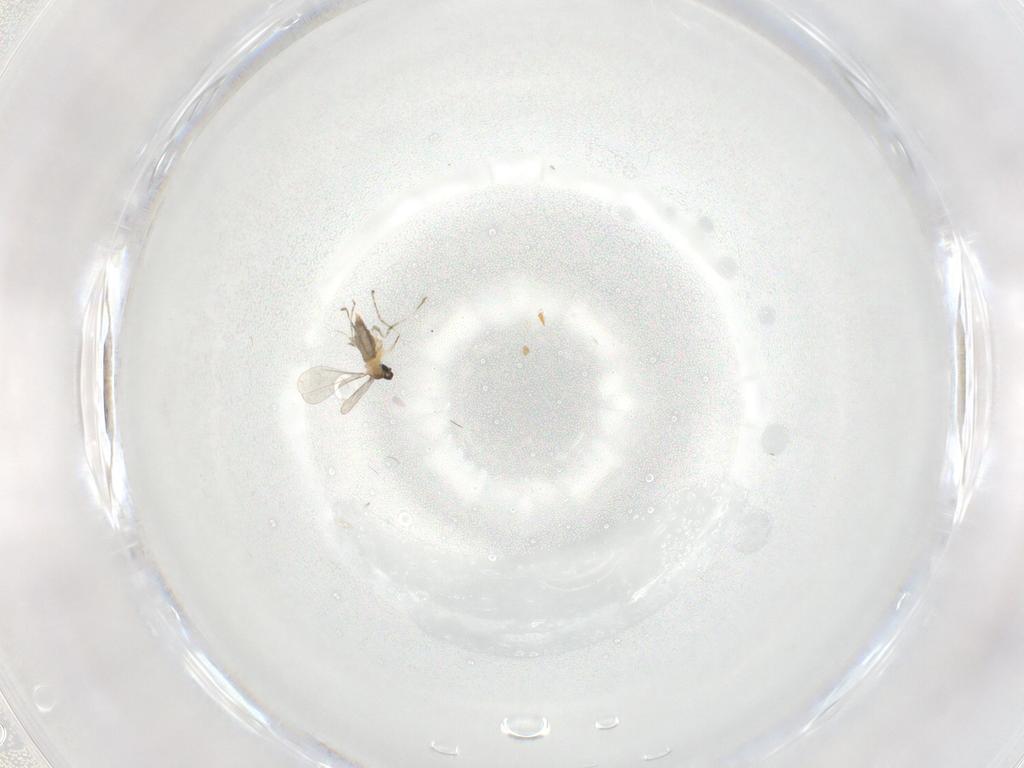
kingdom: Animalia
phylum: Arthropoda
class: Insecta
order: Diptera
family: Cecidomyiidae
